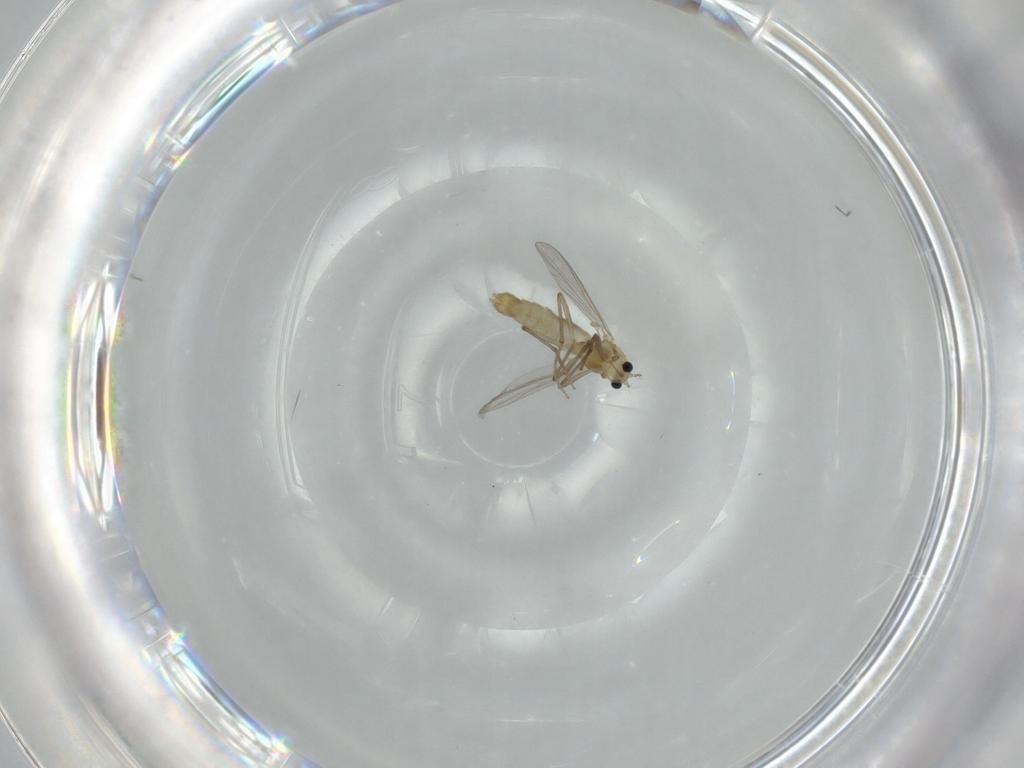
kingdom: Animalia
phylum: Arthropoda
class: Insecta
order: Diptera
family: Chironomidae
